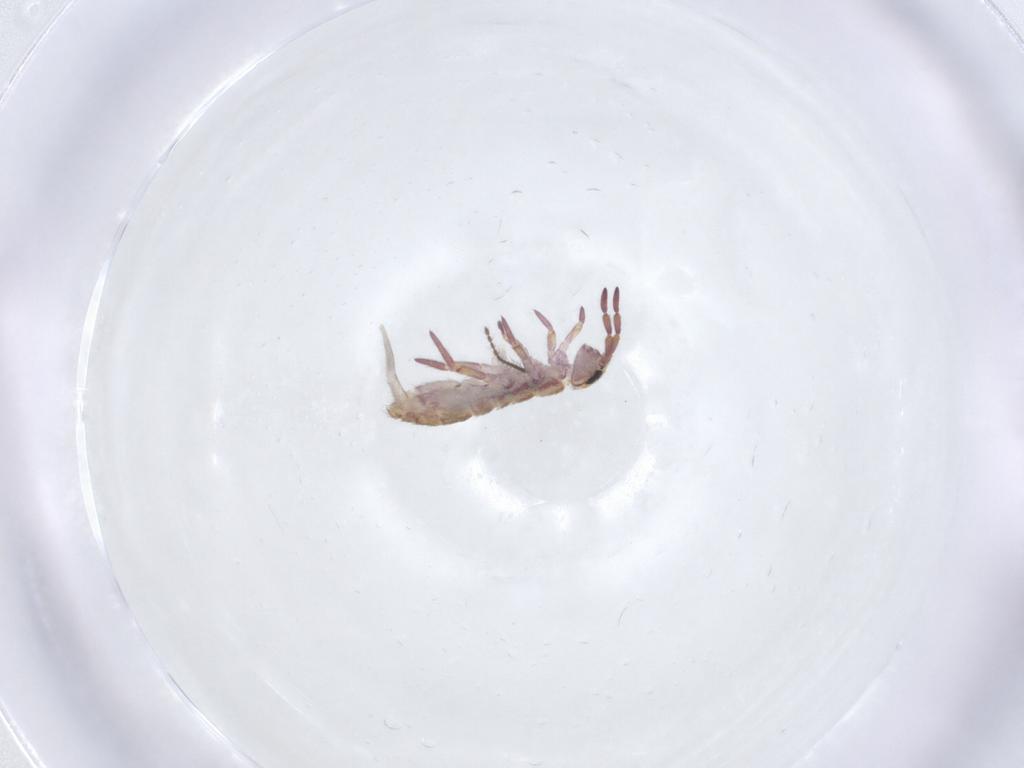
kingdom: Animalia
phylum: Arthropoda
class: Collembola
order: Entomobryomorpha
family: Isotomidae
